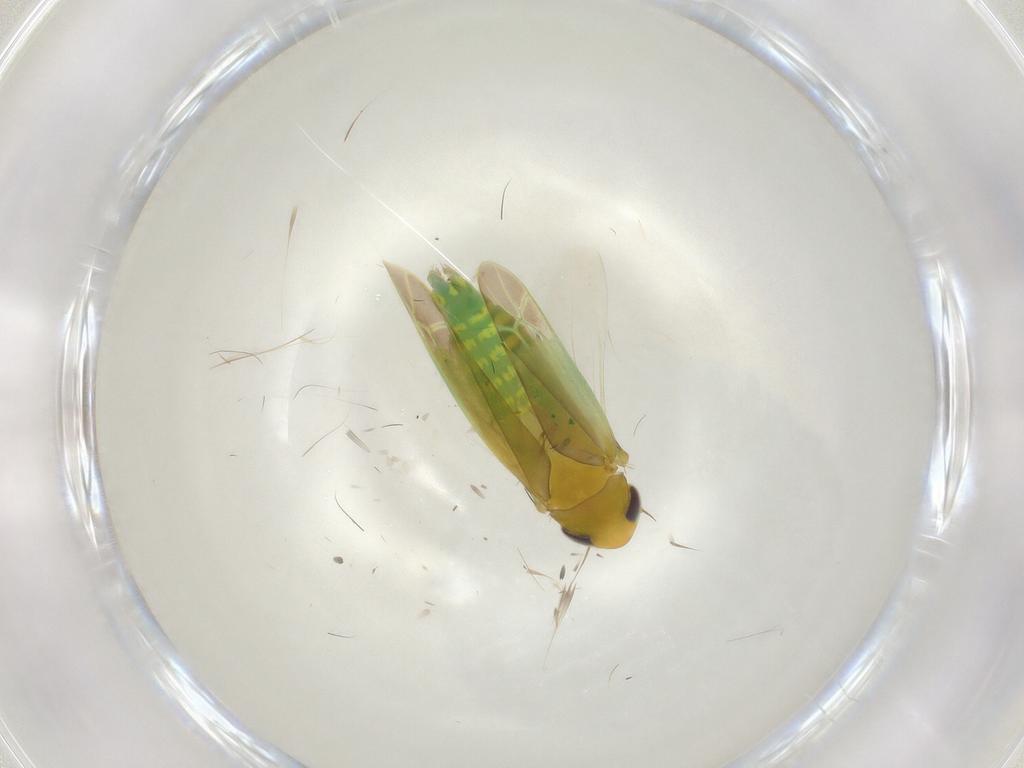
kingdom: Animalia
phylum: Arthropoda
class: Insecta
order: Hemiptera
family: Cicadellidae
